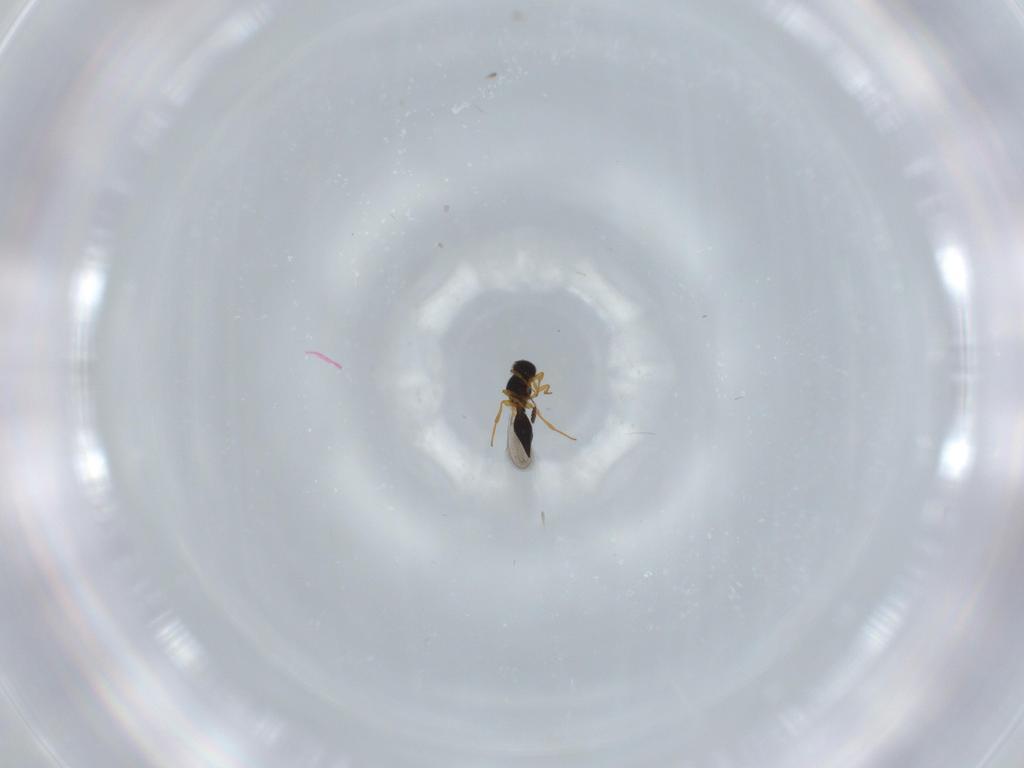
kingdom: Animalia
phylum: Arthropoda
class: Insecta
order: Hymenoptera
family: Platygastridae
